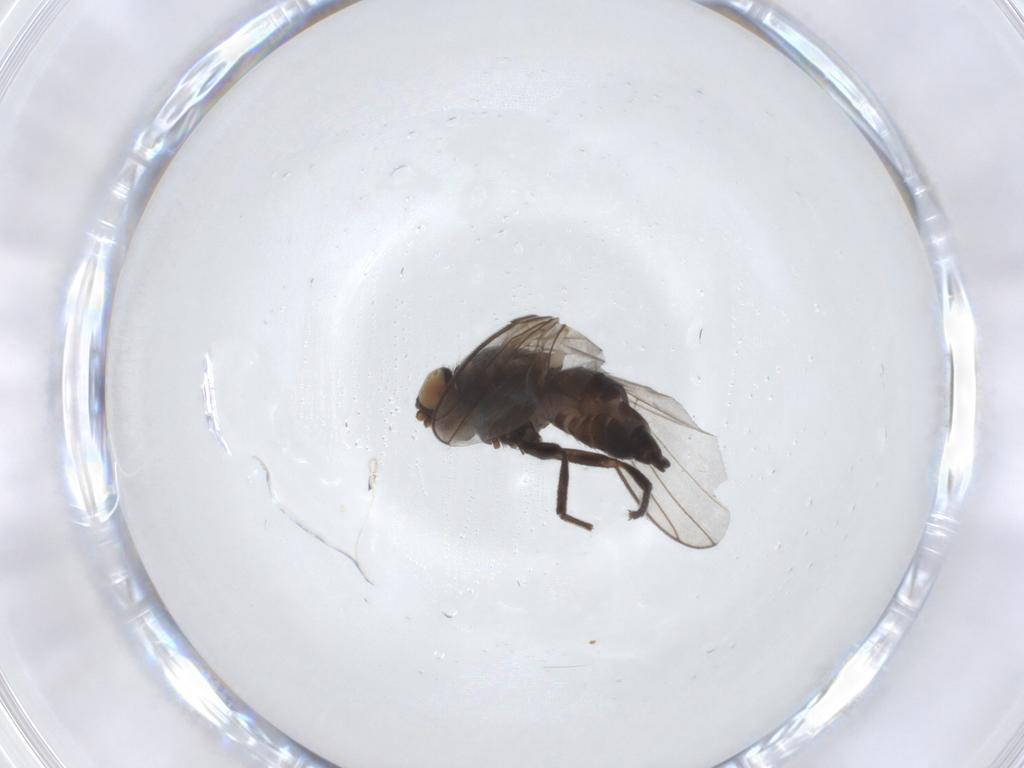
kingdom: Animalia
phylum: Arthropoda
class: Insecta
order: Diptera
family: Agromyzidae
